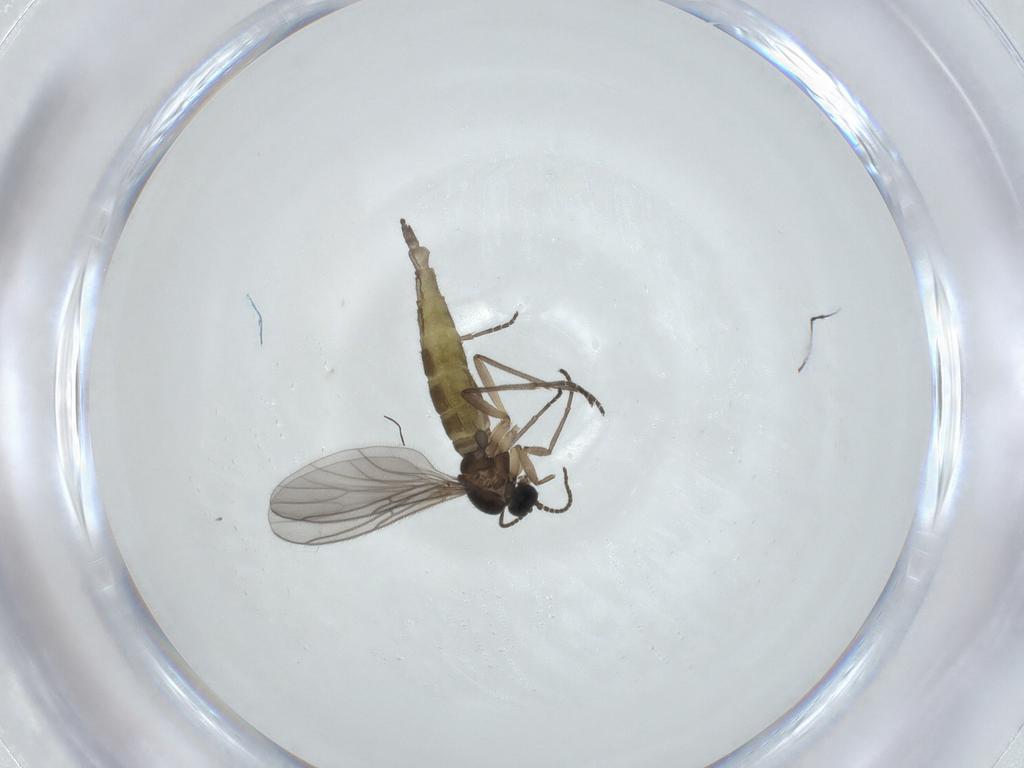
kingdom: Animalia
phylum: Arthropoda
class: Insecta
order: Diptera
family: Sciaridae
